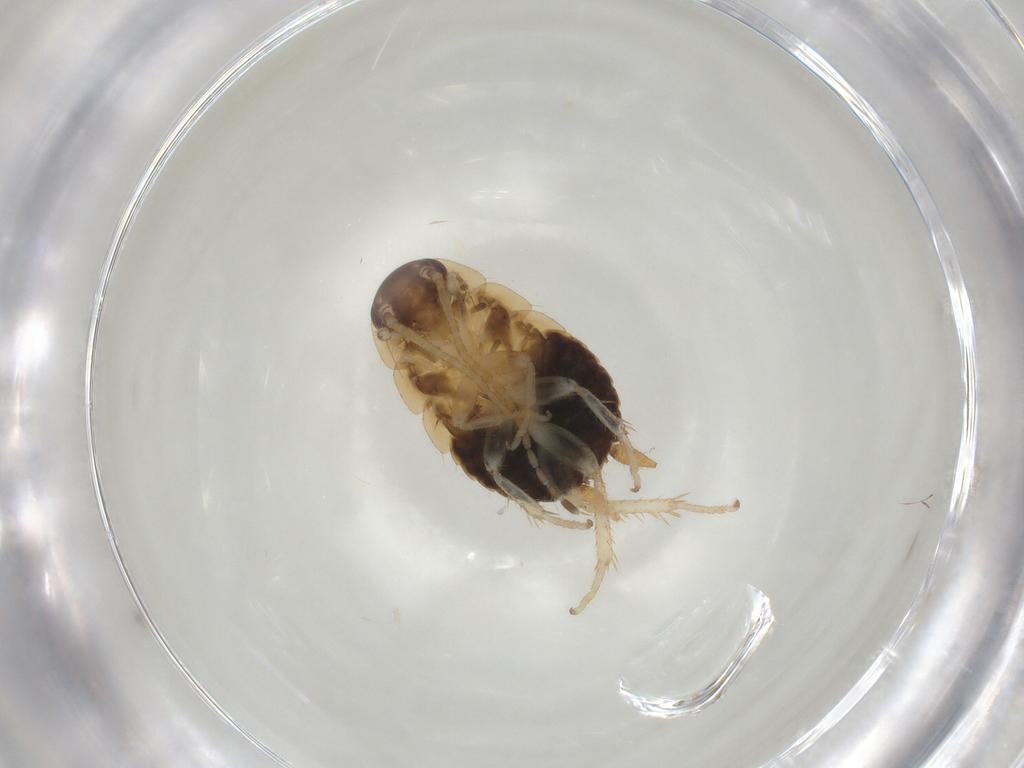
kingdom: Animalia
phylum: Arthropoda
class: Insecta
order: Blattodea
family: Ectobiidae
